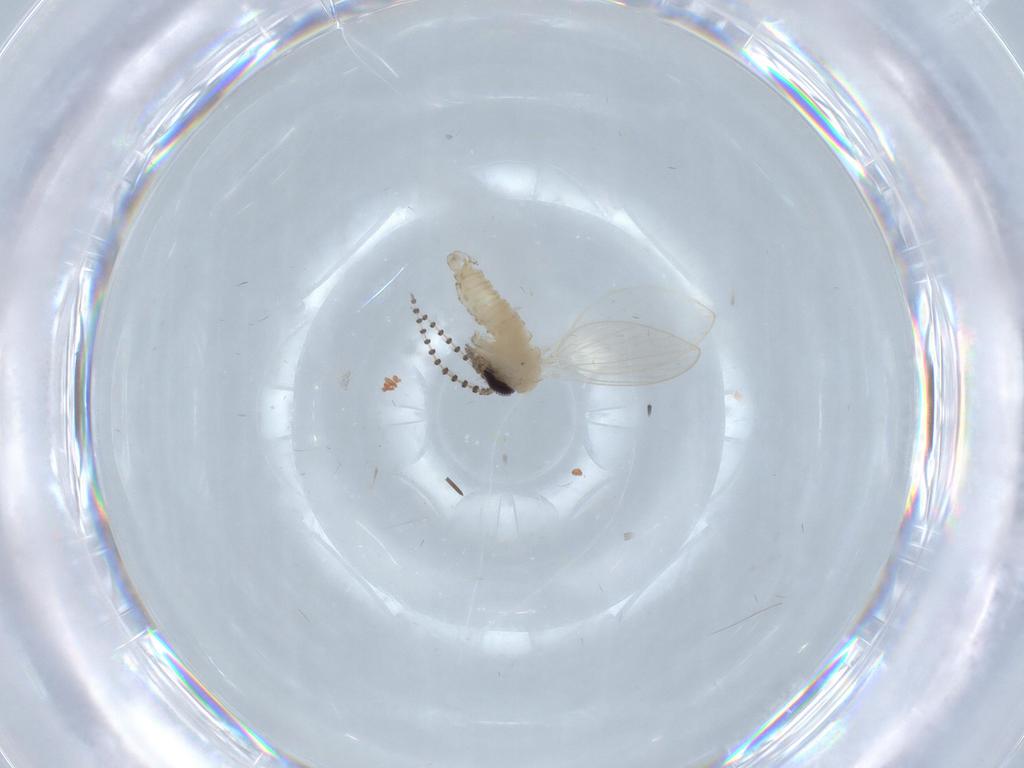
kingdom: Animalia
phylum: Arthropoda
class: Insecta
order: Diptera
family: Psychodidae
